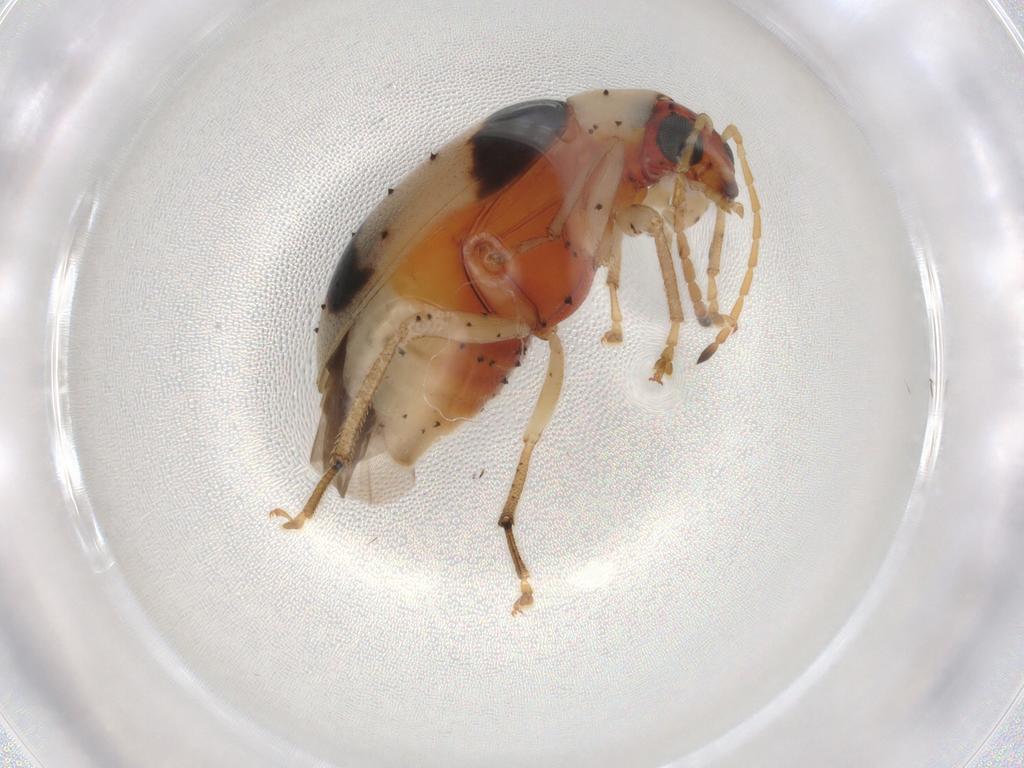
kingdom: Animalia
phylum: Arthropoda
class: Insecta
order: Coleoptera
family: Chrysomelidae
